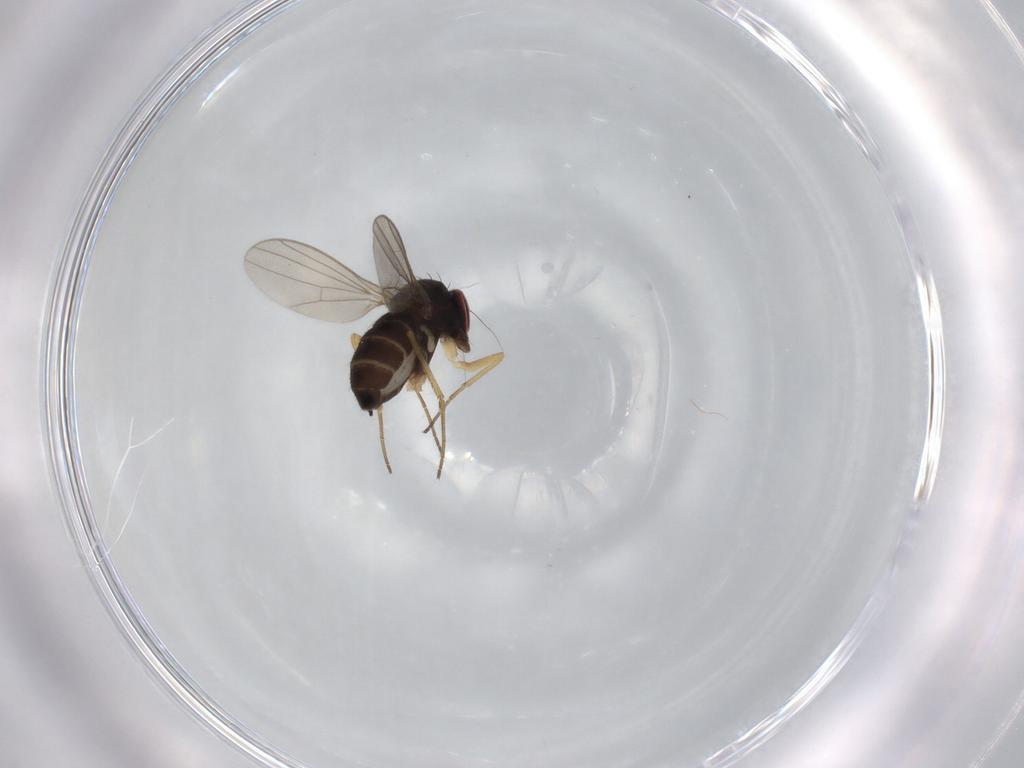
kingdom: Animalia
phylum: Arthropoda
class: Insecta
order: Diptera
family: Dolichopodidae
